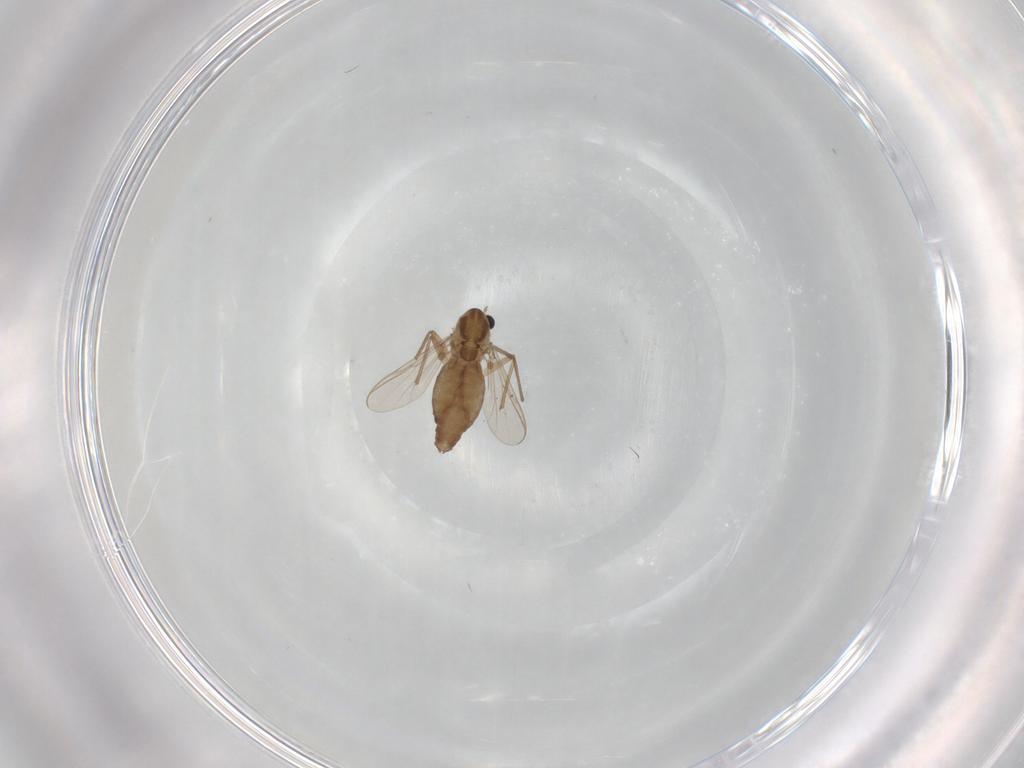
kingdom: Animalia
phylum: Arthropoda
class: Insecta
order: Diptera
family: Chironomidae
